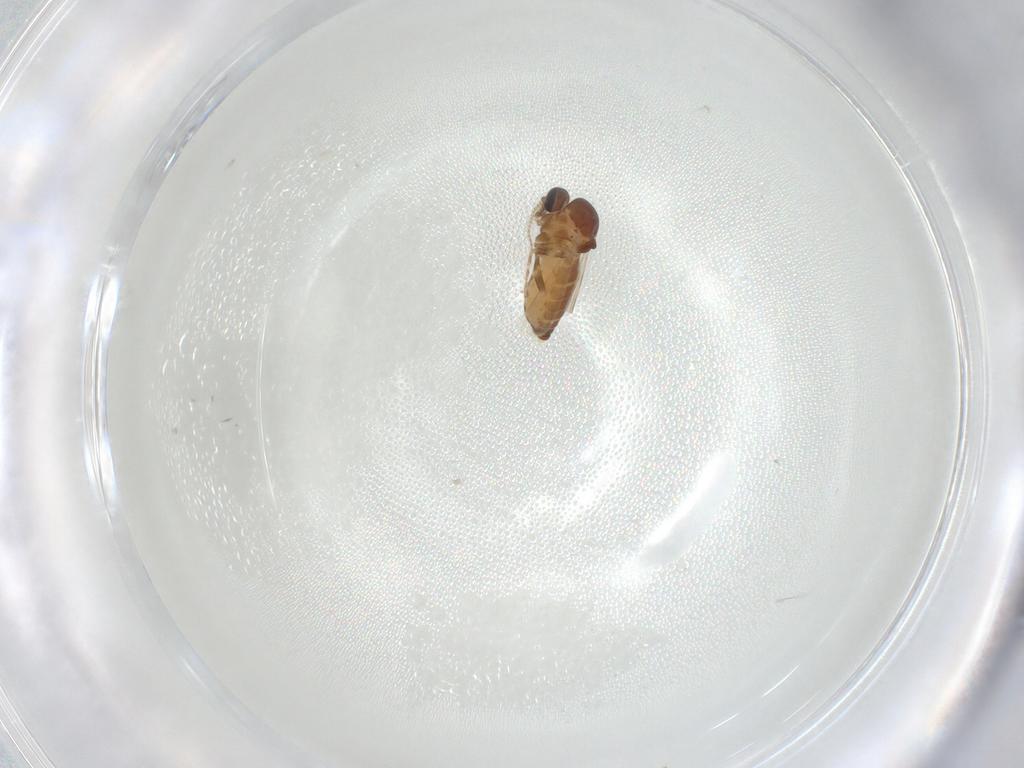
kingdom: Animalia
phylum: Arthropoda
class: Insecta
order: Diptera
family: Ceratopogonidae
